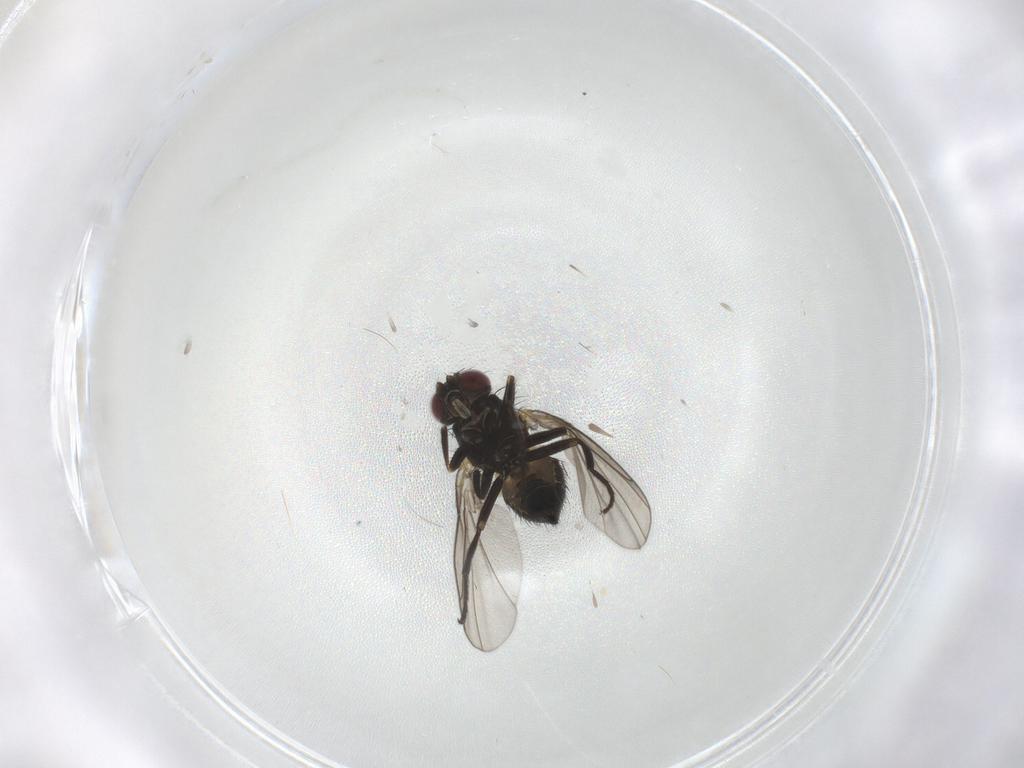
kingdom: Animalia
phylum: Arthropoda
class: Insecta
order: Diptera
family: Agromyzidae
